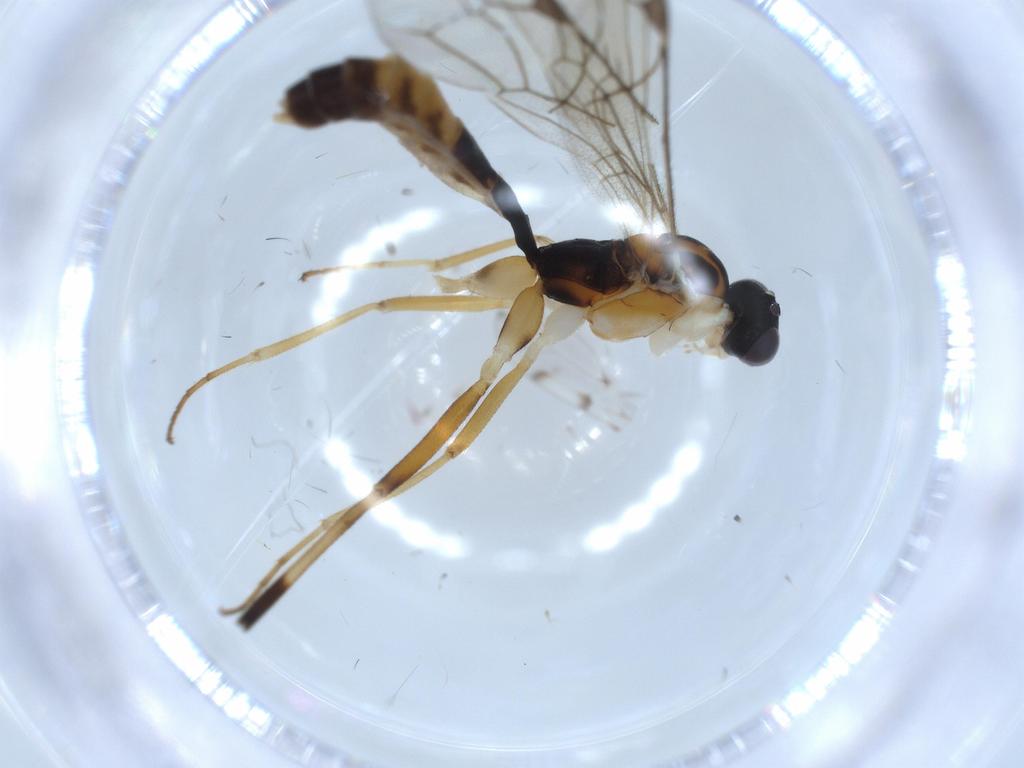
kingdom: Animalia
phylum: Arthropoda
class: Insecta
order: Hymenoptera
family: Ichneumonidae
